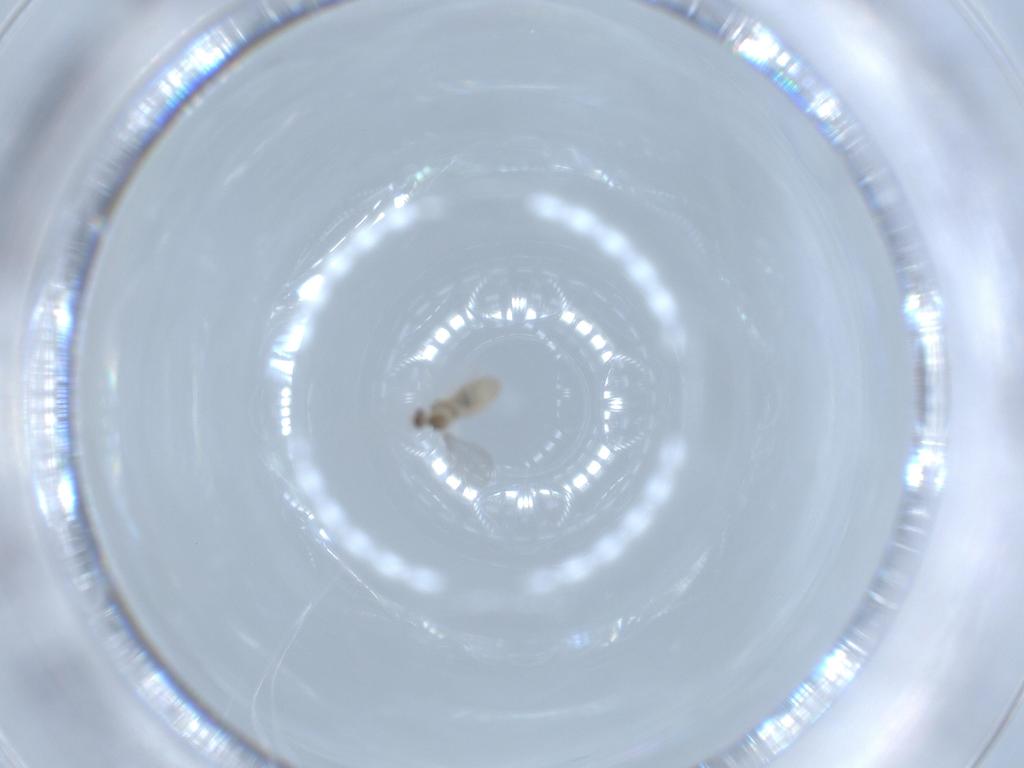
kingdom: Animalia
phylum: Arthropoda
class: Insecta
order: Diptera
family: Cecidomyiidae
